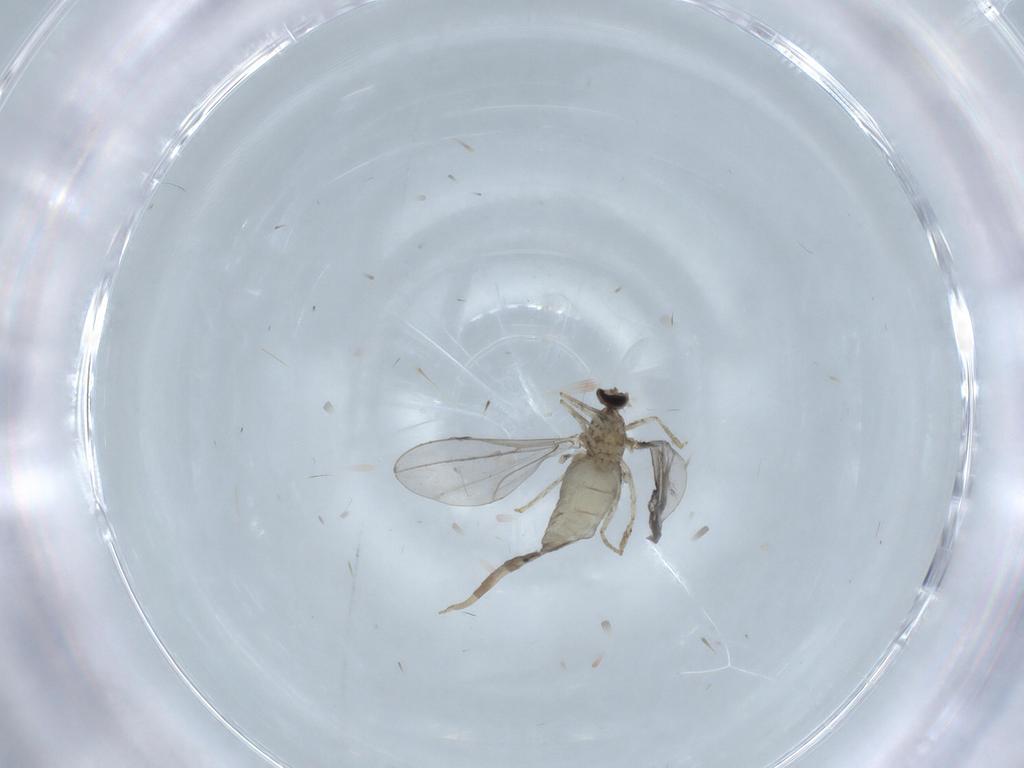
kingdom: Animalia
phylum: Arthropoda
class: Insecta
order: Diptera
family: Cecidomyiidae
